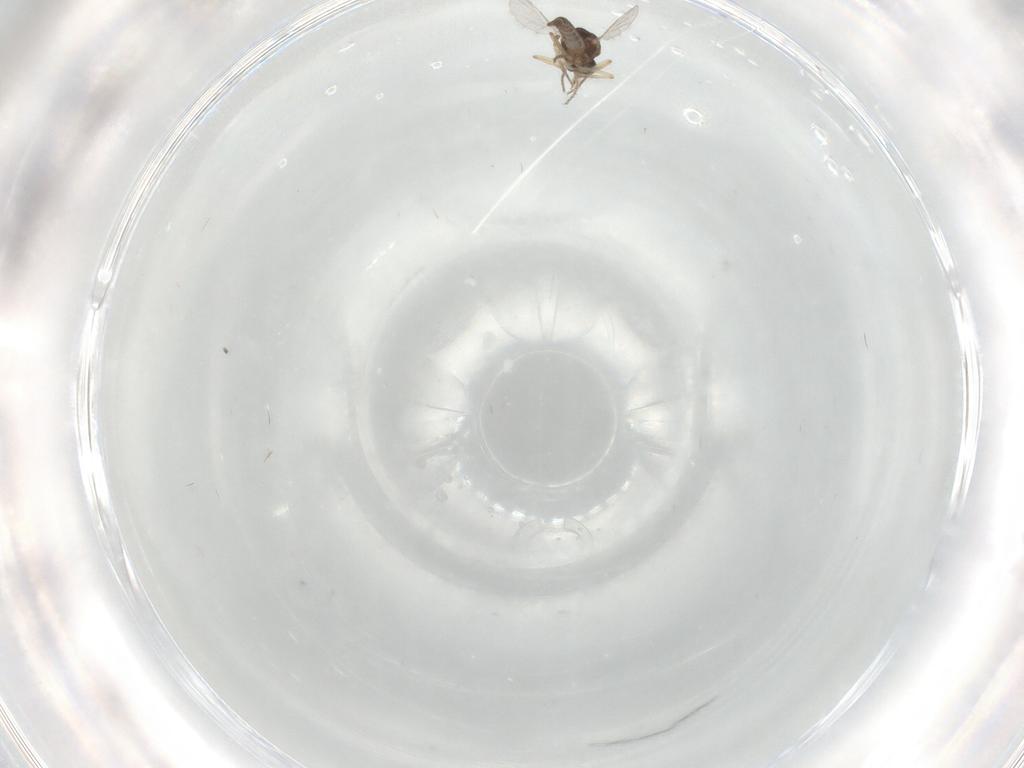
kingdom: Animalia
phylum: Arthropoda
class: Insecta
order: Diptera
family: Ceratopogonidae
